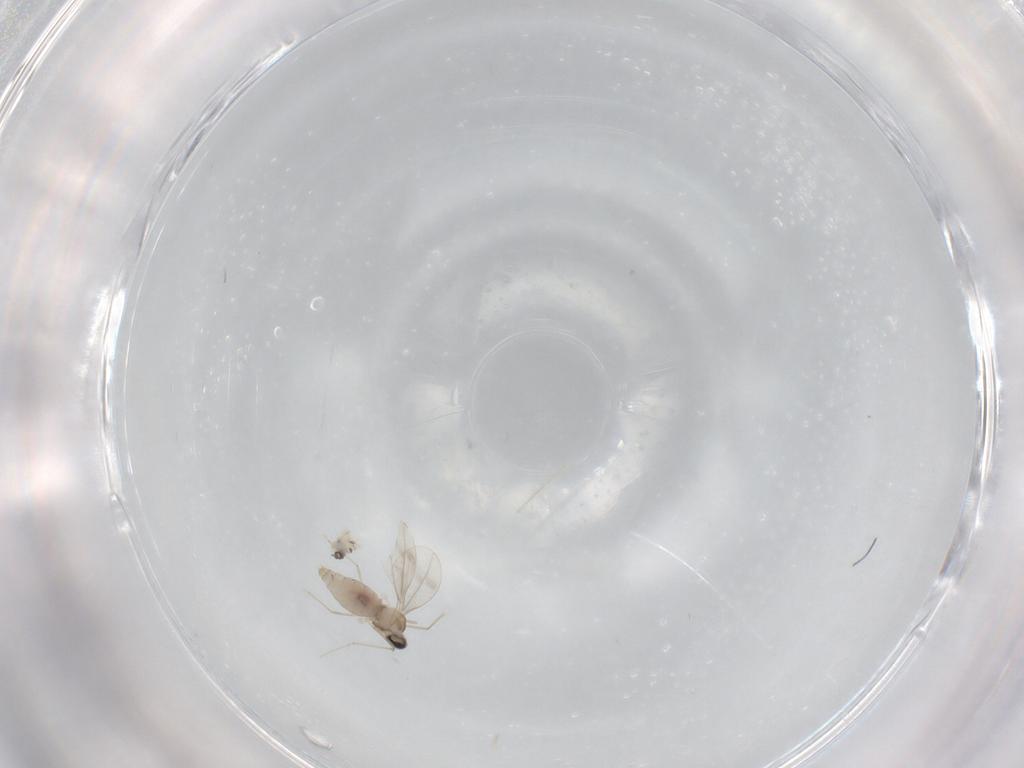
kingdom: Animalia
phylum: Arthropoda
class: Insecta
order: Diptera
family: Cecidomyiidae
